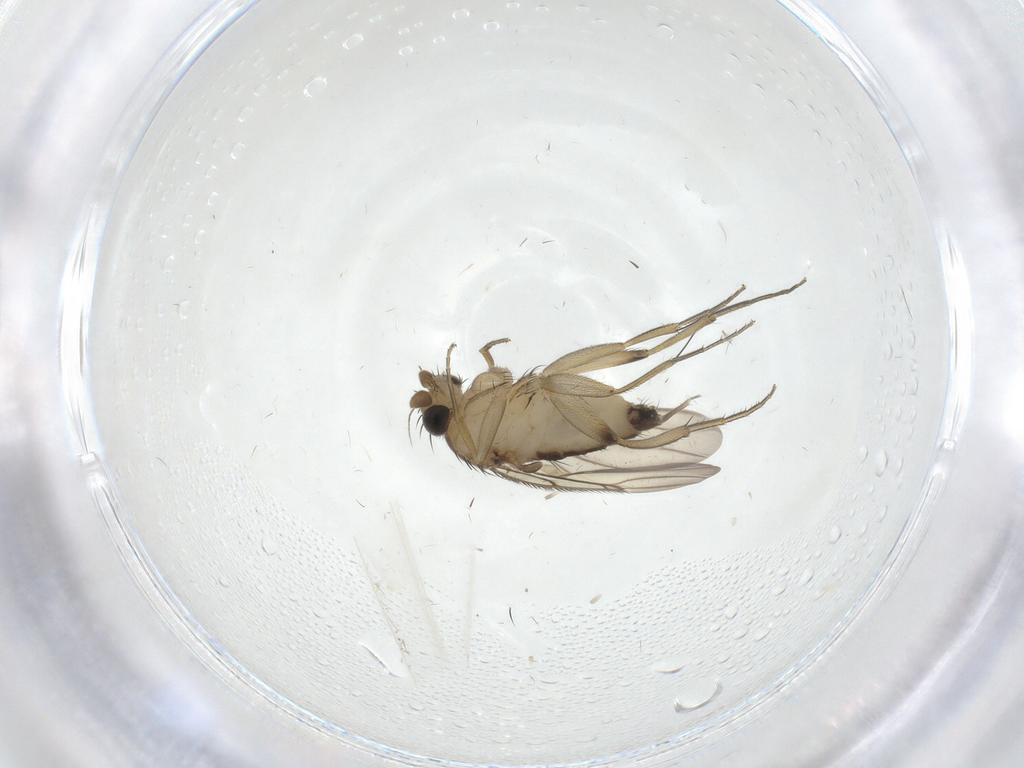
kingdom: Animalia
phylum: Arthropoda
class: Insecta
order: Diptera
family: Phoridae
